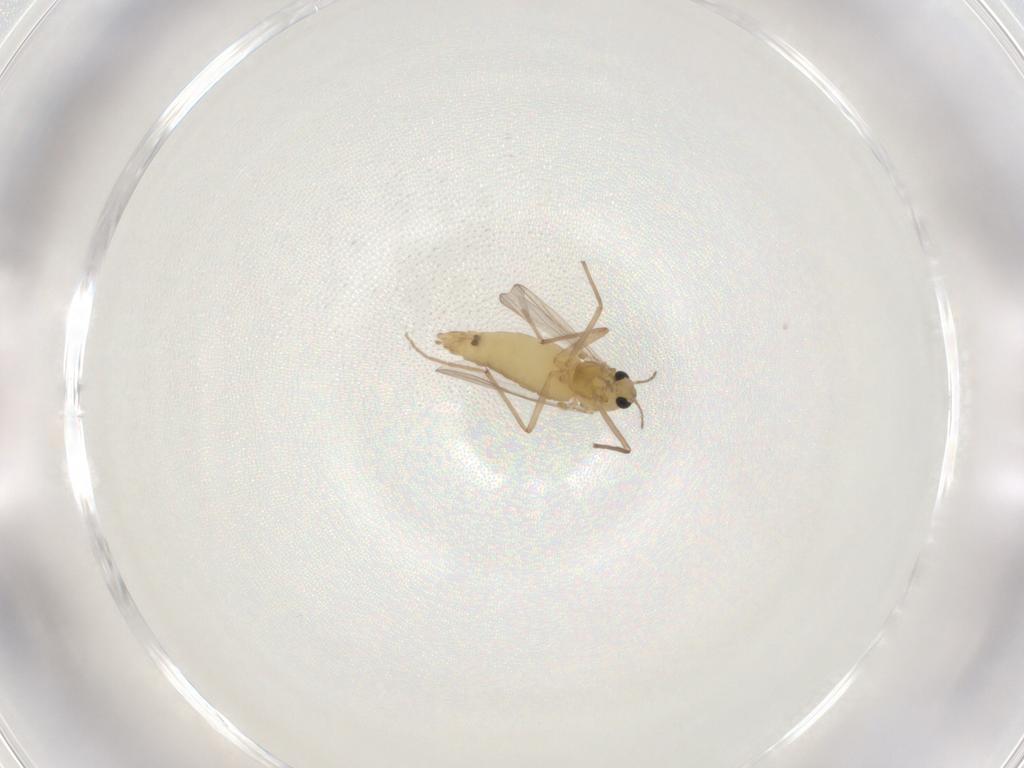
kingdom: Animalia
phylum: Arthropoda
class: Insecta
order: Diptera
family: Chironomidae
